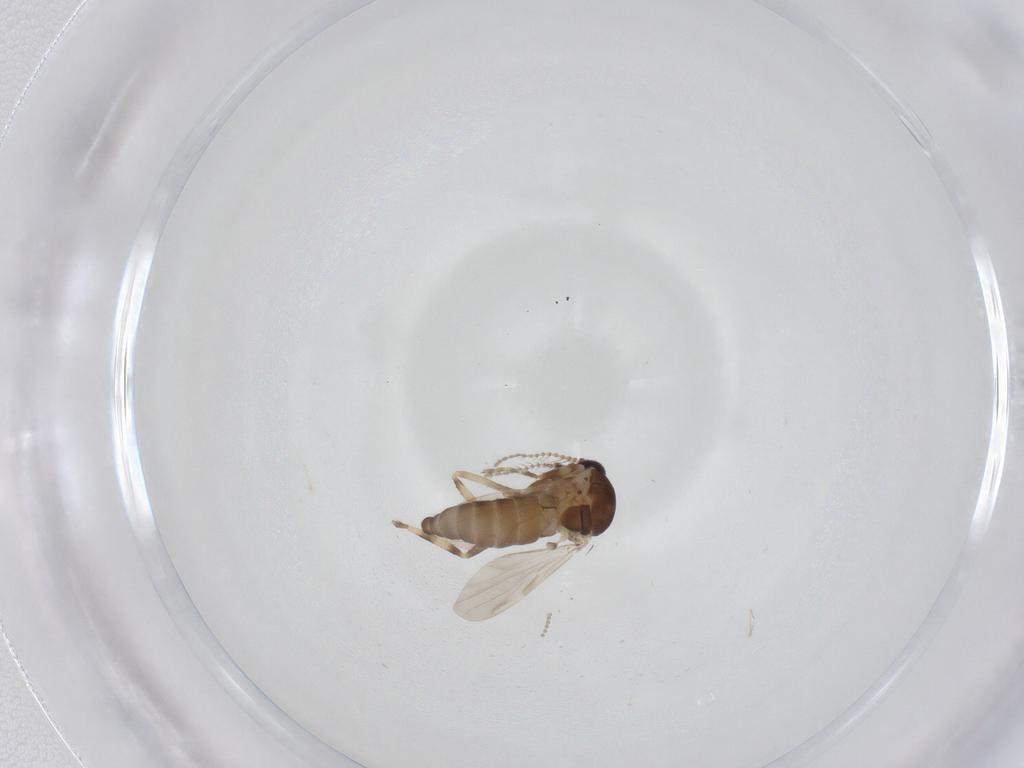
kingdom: Animalia
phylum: Arthropoda
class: Insecta
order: Diptera
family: Ceratopogonidae
